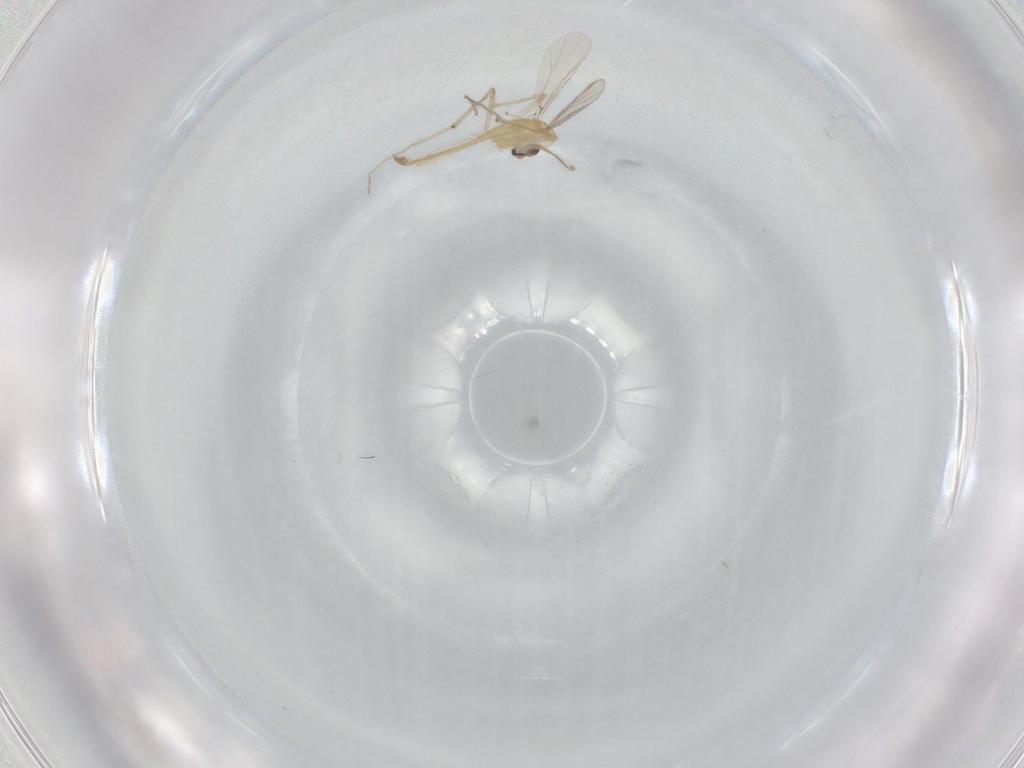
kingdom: Animalia
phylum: Arthropoda
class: Insecta
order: Diptera
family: Chironomidae
